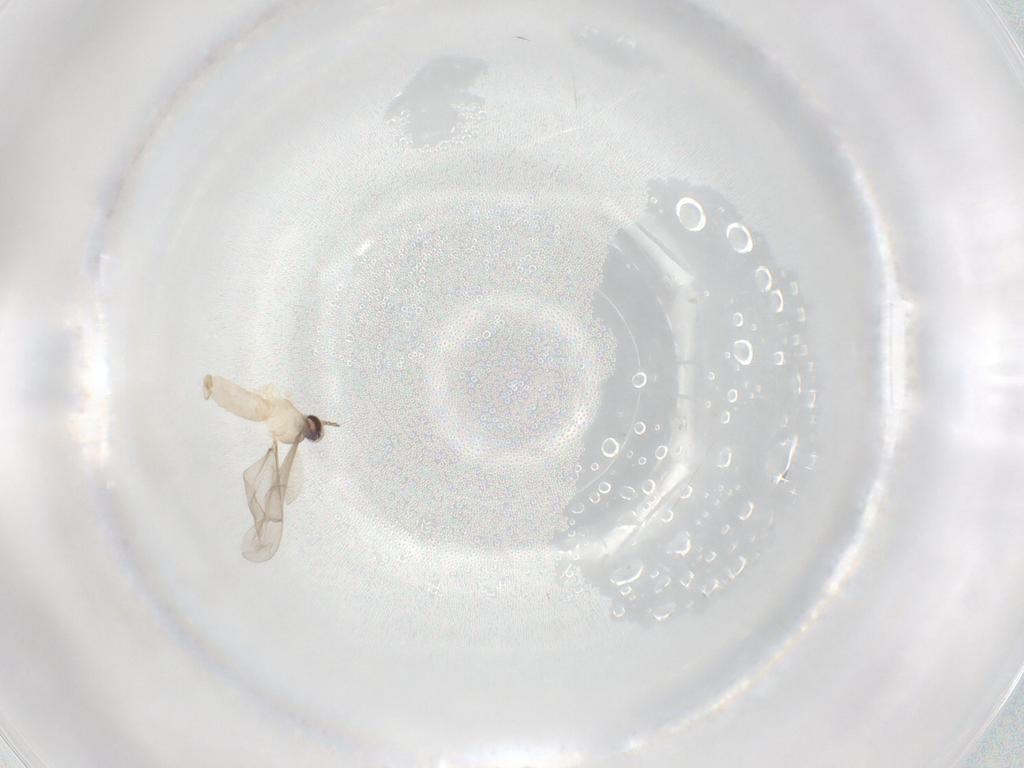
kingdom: Animalia
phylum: Arthropoda
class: Insecta
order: Diptera
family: Cecidomyiidae
